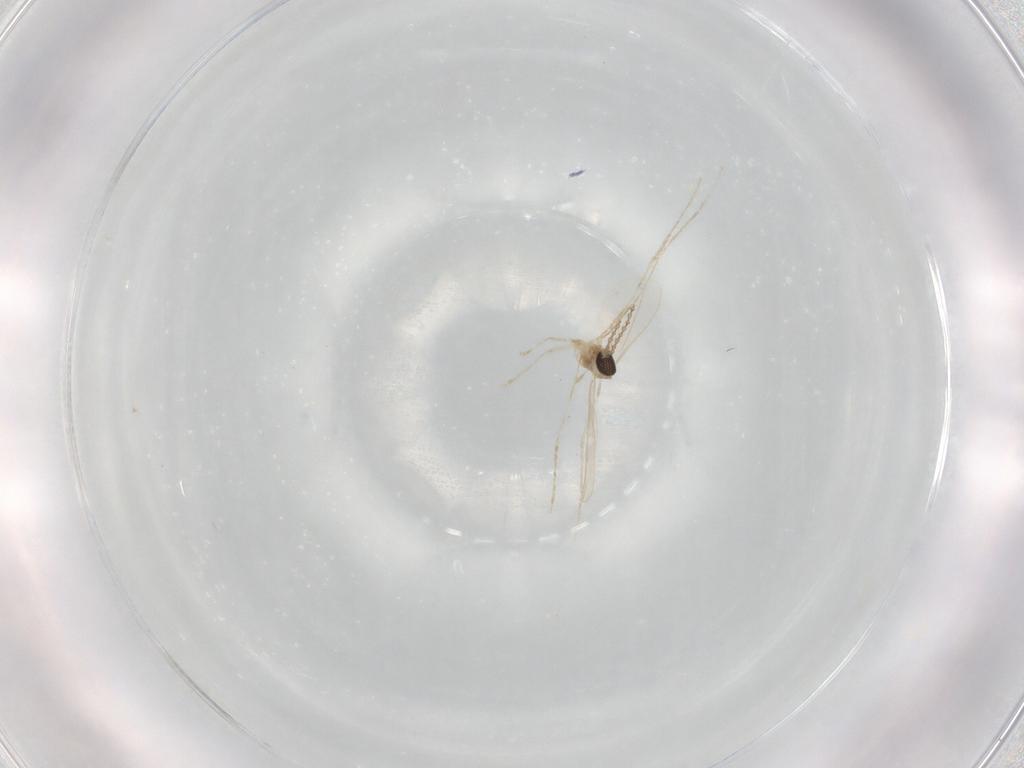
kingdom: Animalia
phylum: Arthropoda
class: Insecta
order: Diptera
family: Cecidomyiidae
